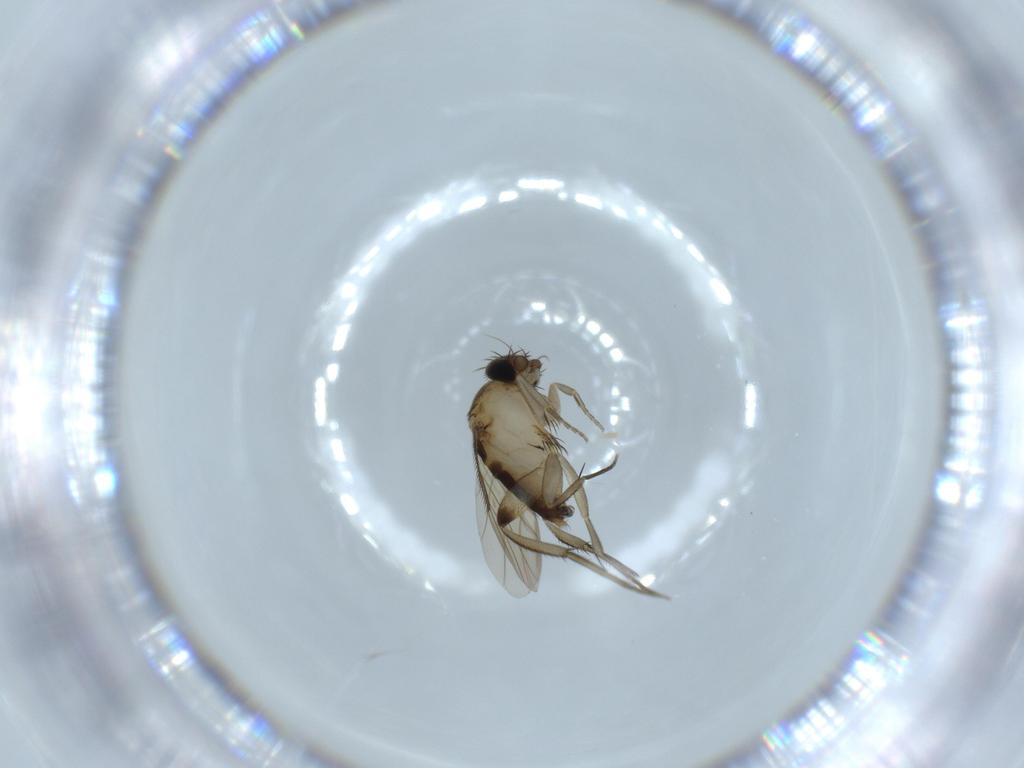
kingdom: Animalia
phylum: Arthropoda
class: Insecta
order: Diptera
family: Phoridae
